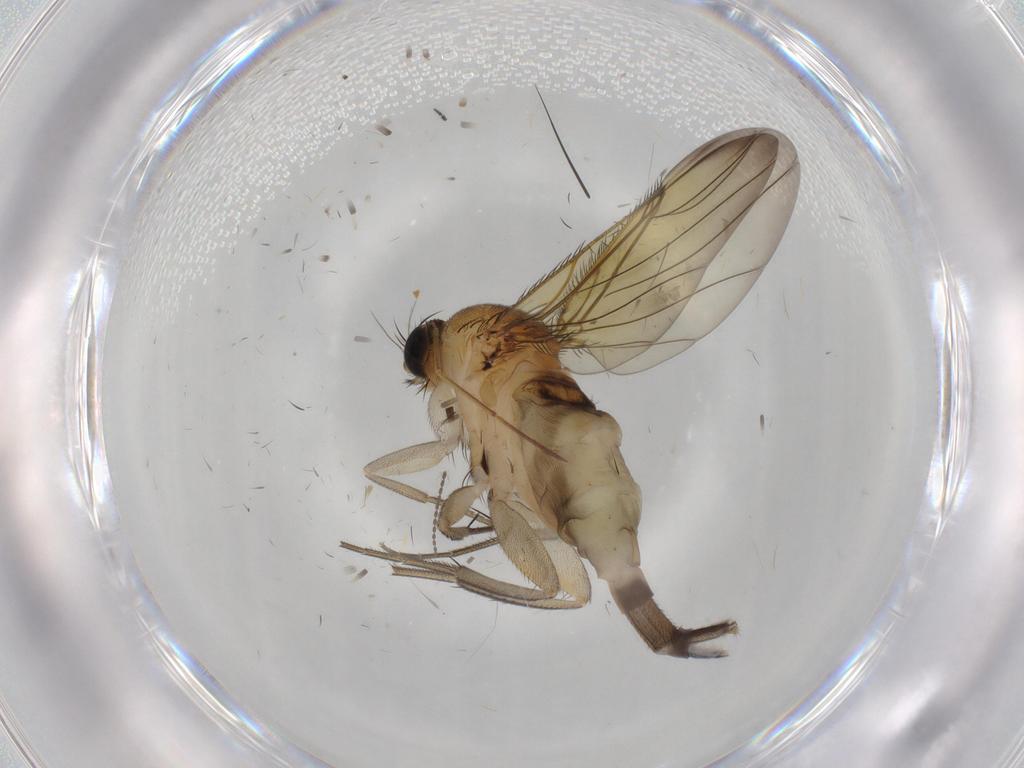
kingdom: Animalia
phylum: Arthropoda
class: Insecta
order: Diptera
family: Phoridae
